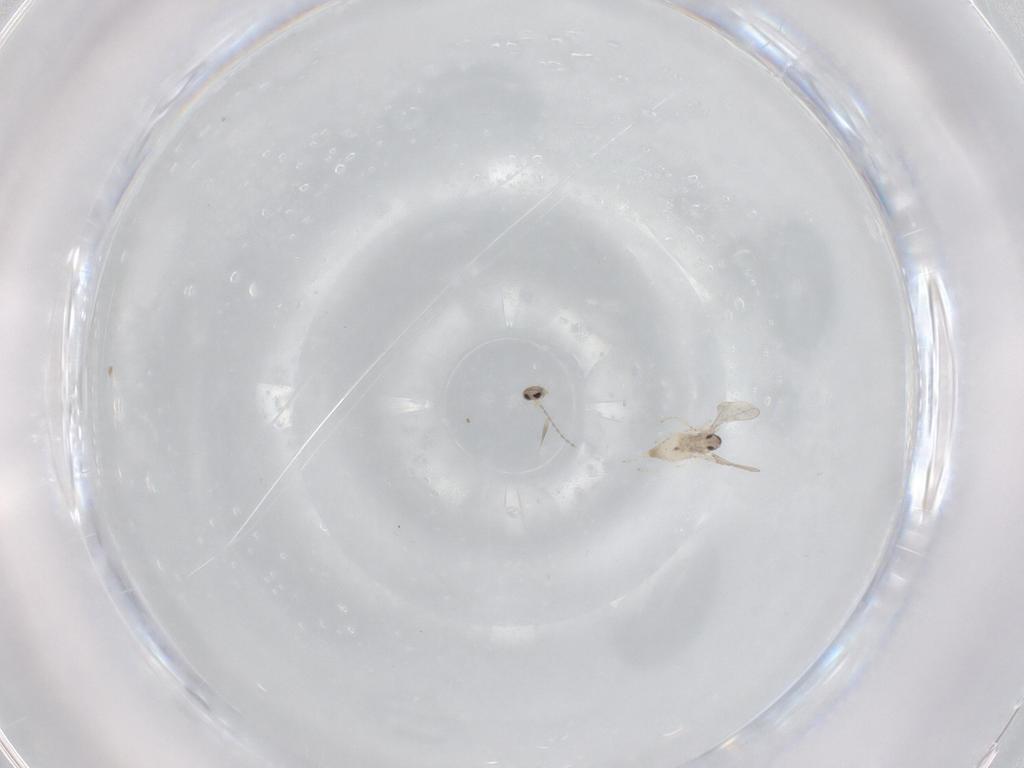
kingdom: Animalia
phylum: Arthropoda
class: Insecta
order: Diptera
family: Cecidomyiidae
